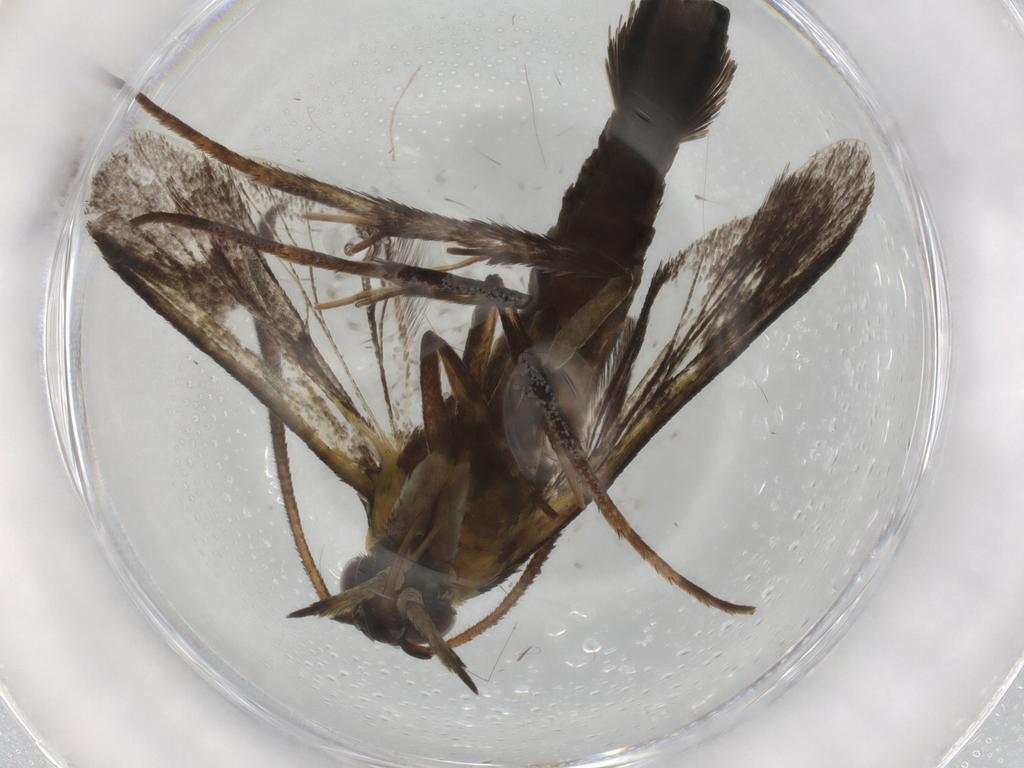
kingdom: Animalia
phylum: Arthropoda
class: Insecta
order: Lepidoptera
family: Sesiidae
